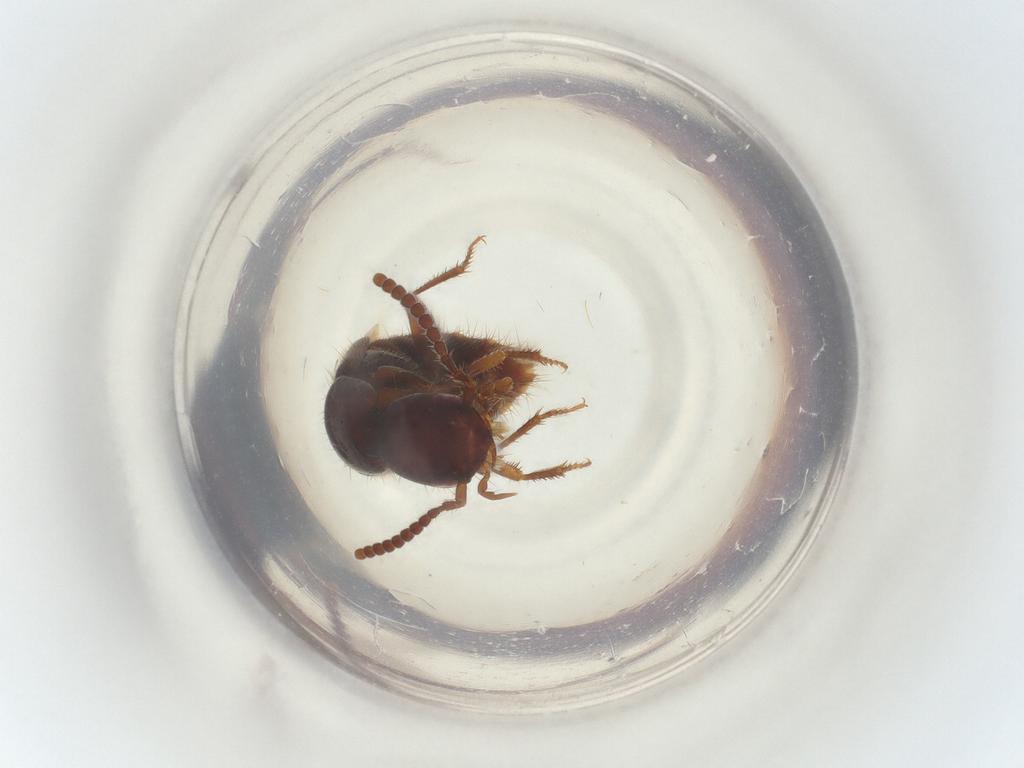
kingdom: Animalia
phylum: Arthropoda
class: Insecta
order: Coleoptera
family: Staphylinidae
